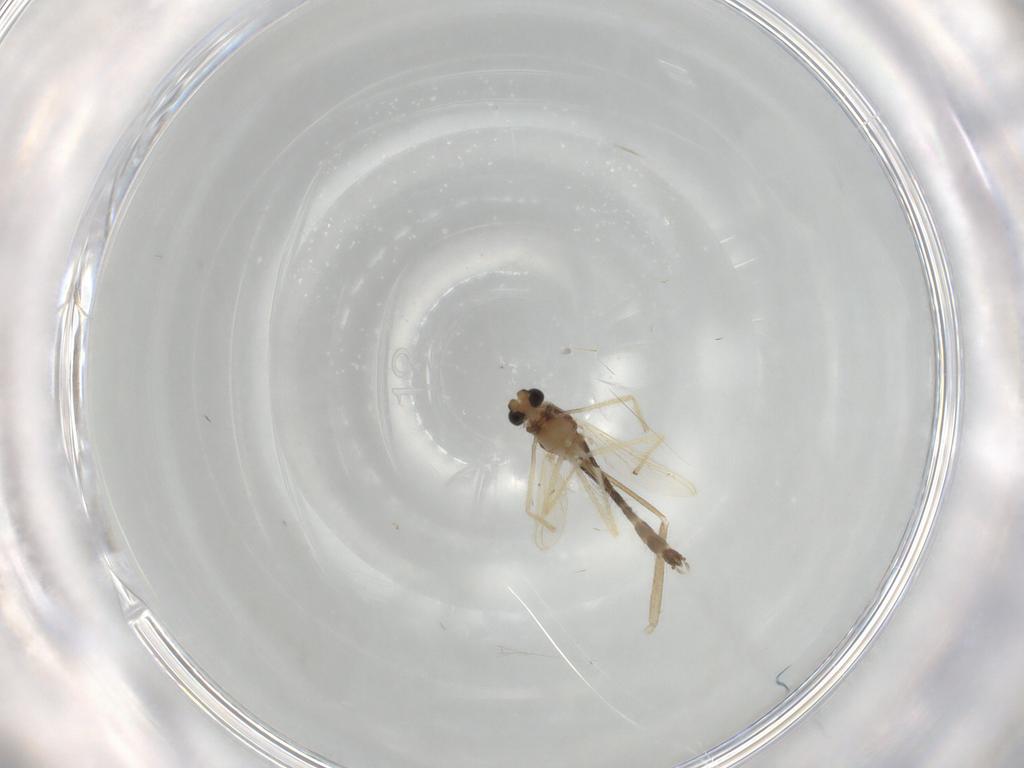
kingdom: Animalia
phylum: Arthropoda
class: Insecta
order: Diptera
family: Chironomidae
